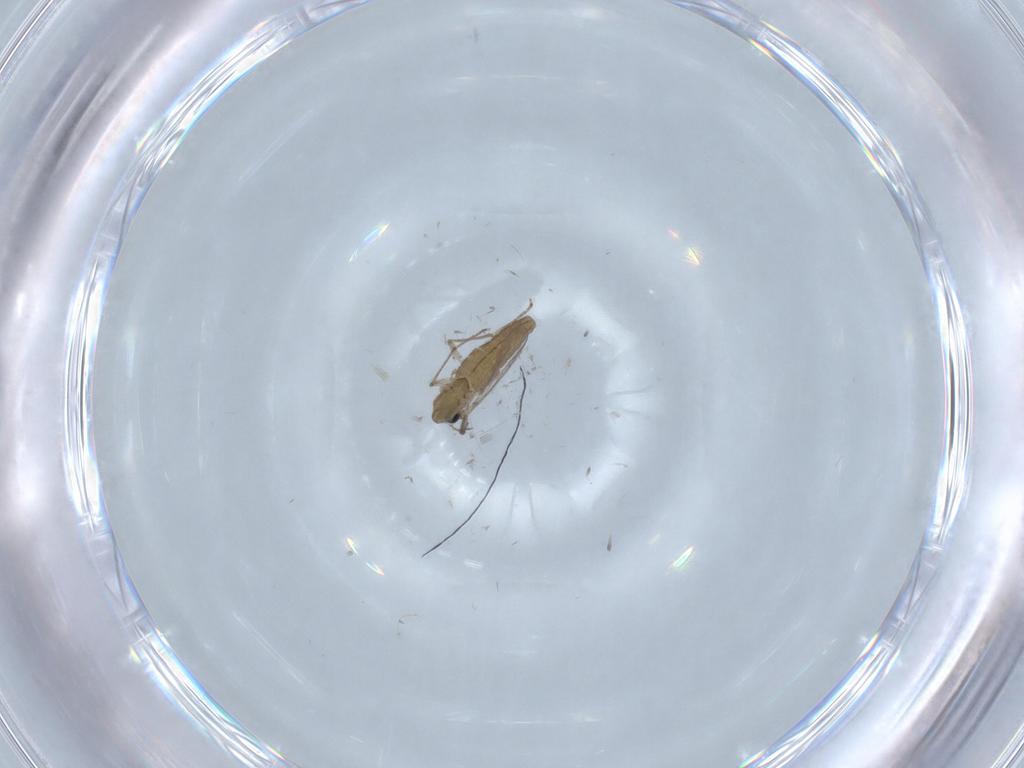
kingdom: Animalia
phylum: Arthropoda
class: Insecta
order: Diptera
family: Chironomidae
